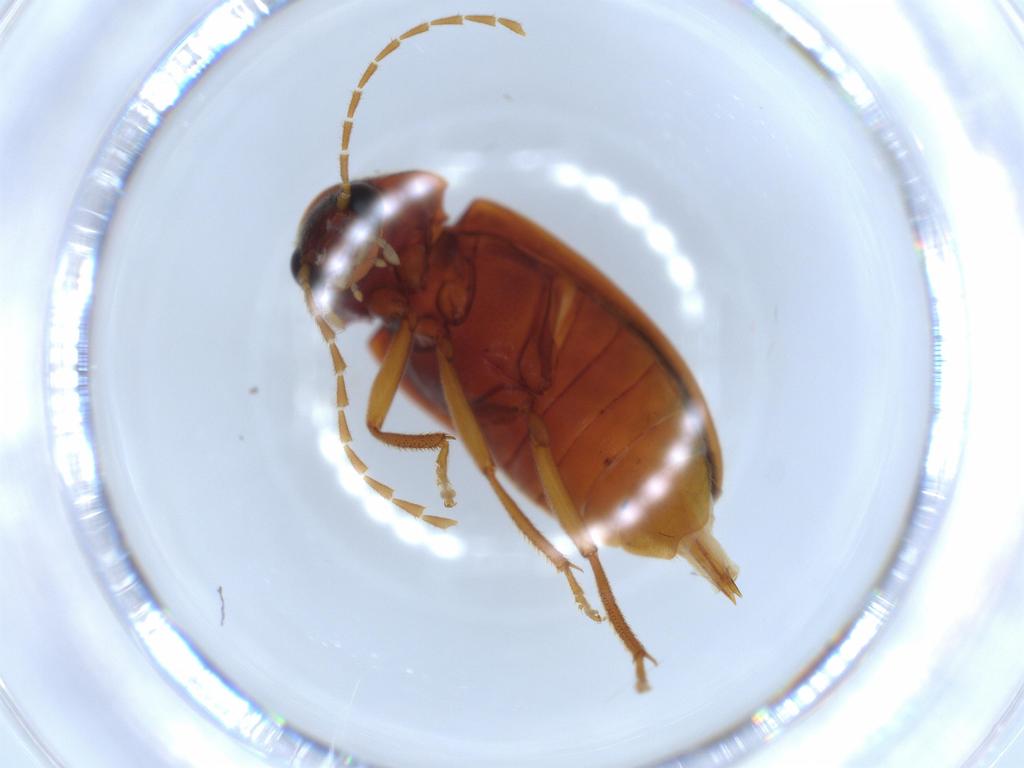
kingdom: Animalia
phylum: Arthropoda
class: Insecta
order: Coleoptera
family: Ptilodactylidae
